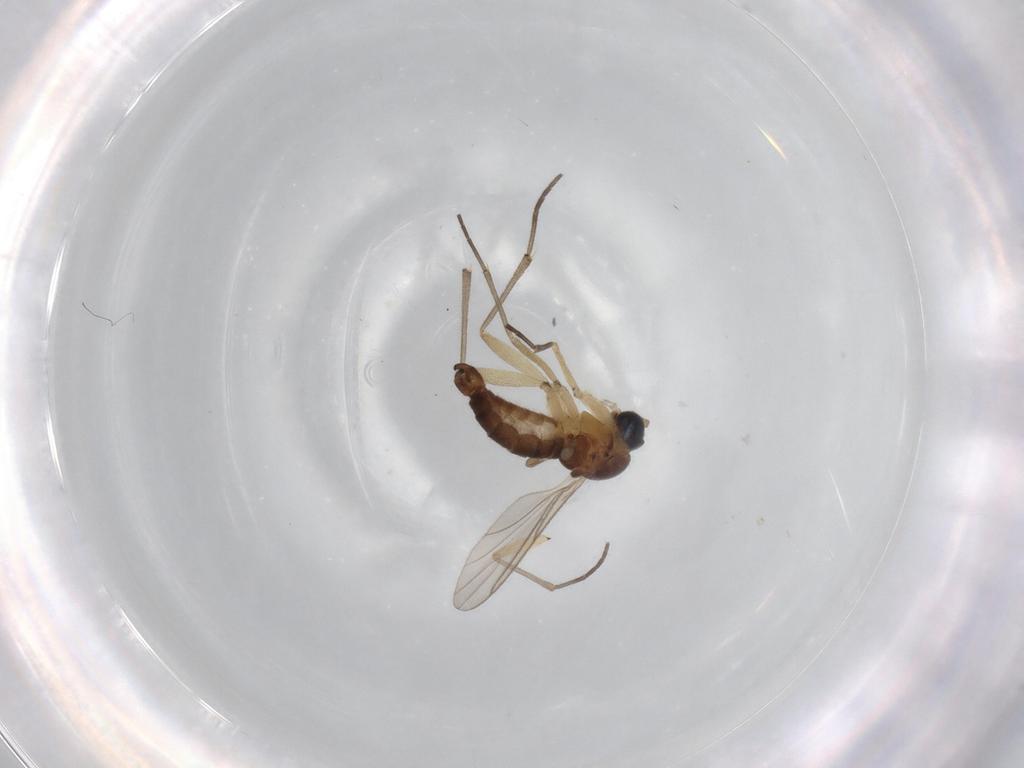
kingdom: Animalia
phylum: Arthropoda
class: Insecta
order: Diptera
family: Sciaridae
